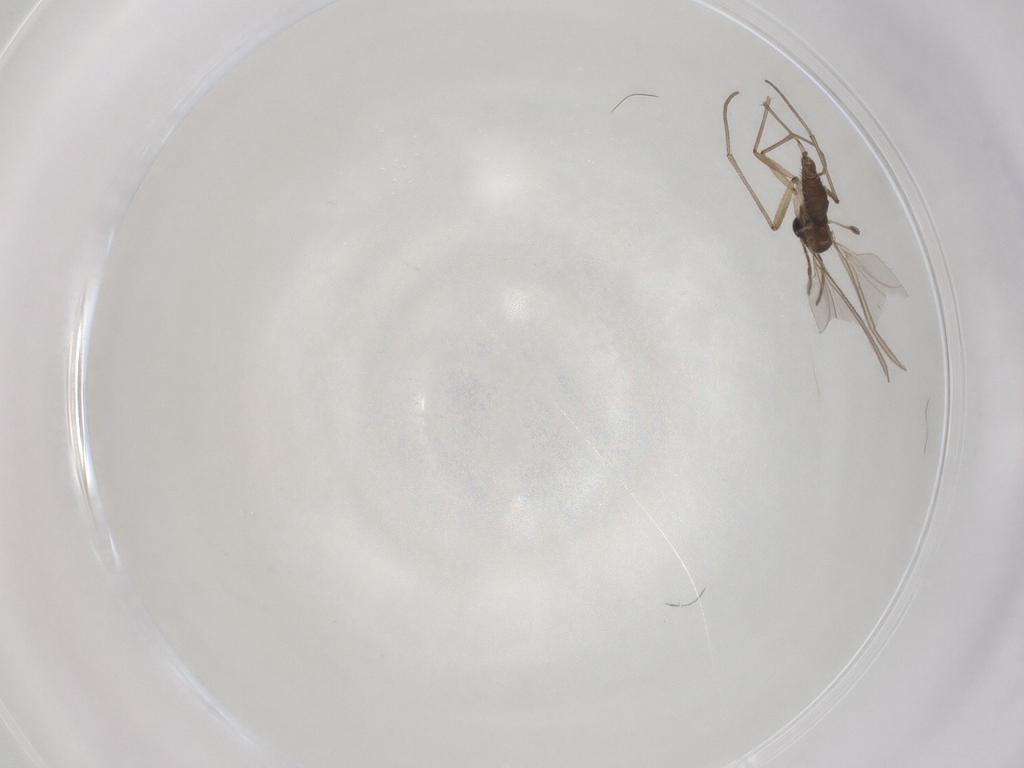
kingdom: Animalia
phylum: Arthropoda
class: Insecta
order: Diptera
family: Sciaridae
